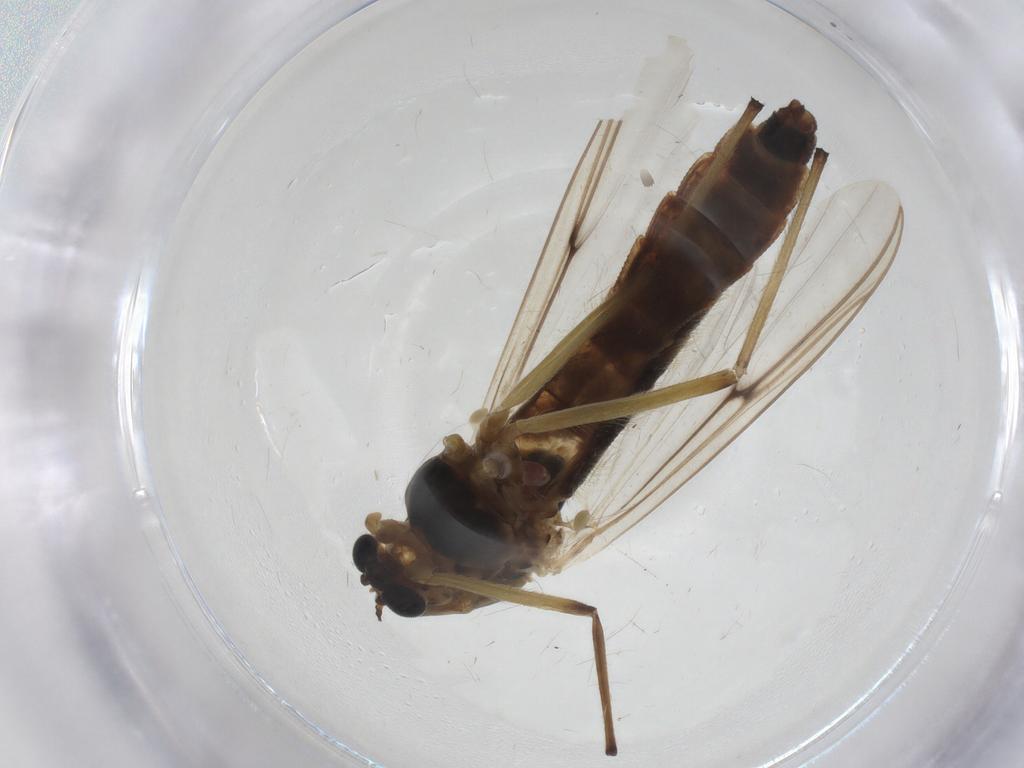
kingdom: Animalia
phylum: Arthropoda
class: Insecta
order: Diptera
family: Chironomidae
